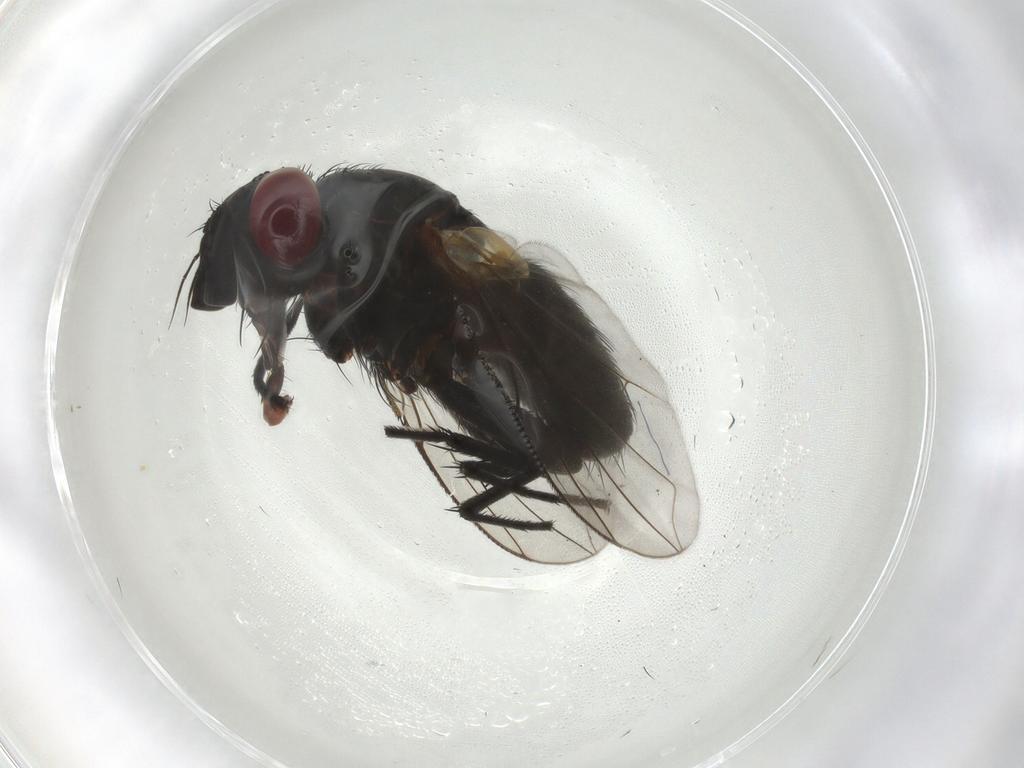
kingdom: Animalia
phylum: Arthropoda
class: Insecta
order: Diptera
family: Tachinidae
